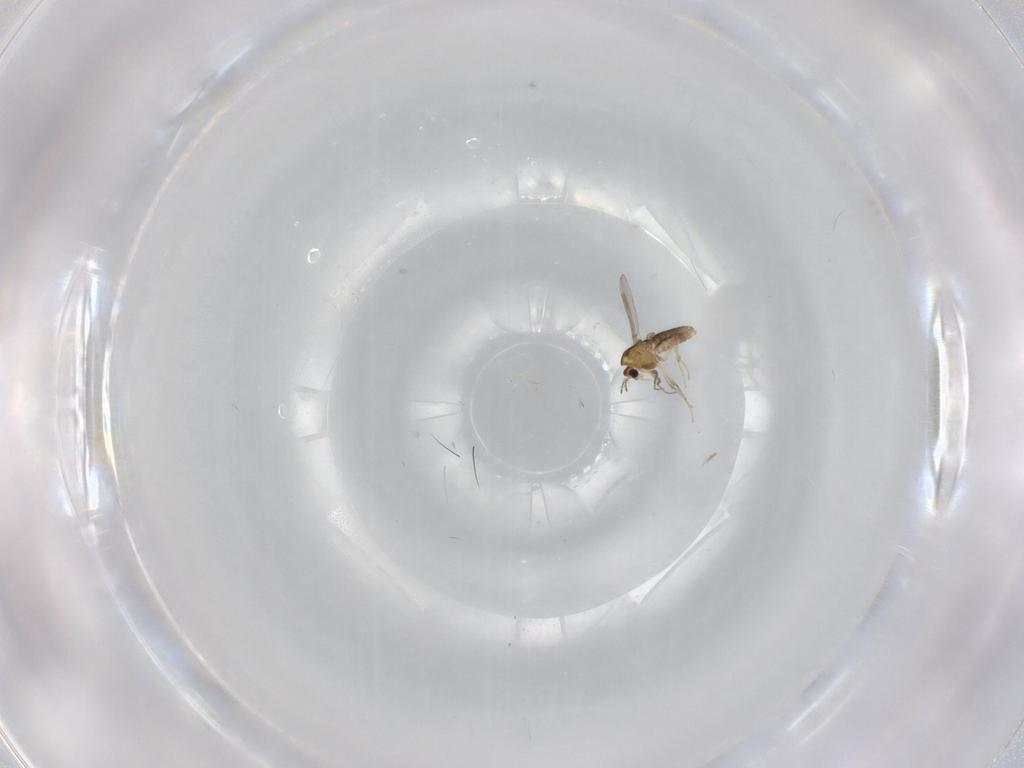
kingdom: Animalia
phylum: Arthropoda
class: Insecta
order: Diptera
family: Chironomidae
